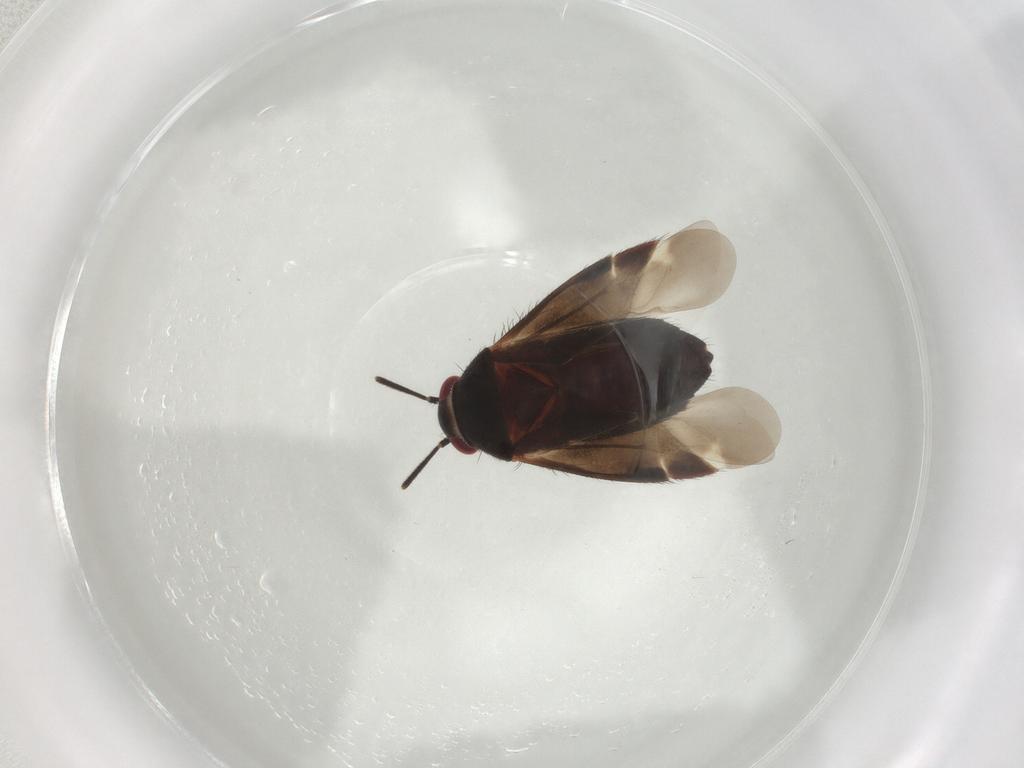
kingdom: Animalia
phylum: Arthropoda
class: Insecta
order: Hemiptera
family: Miridae
